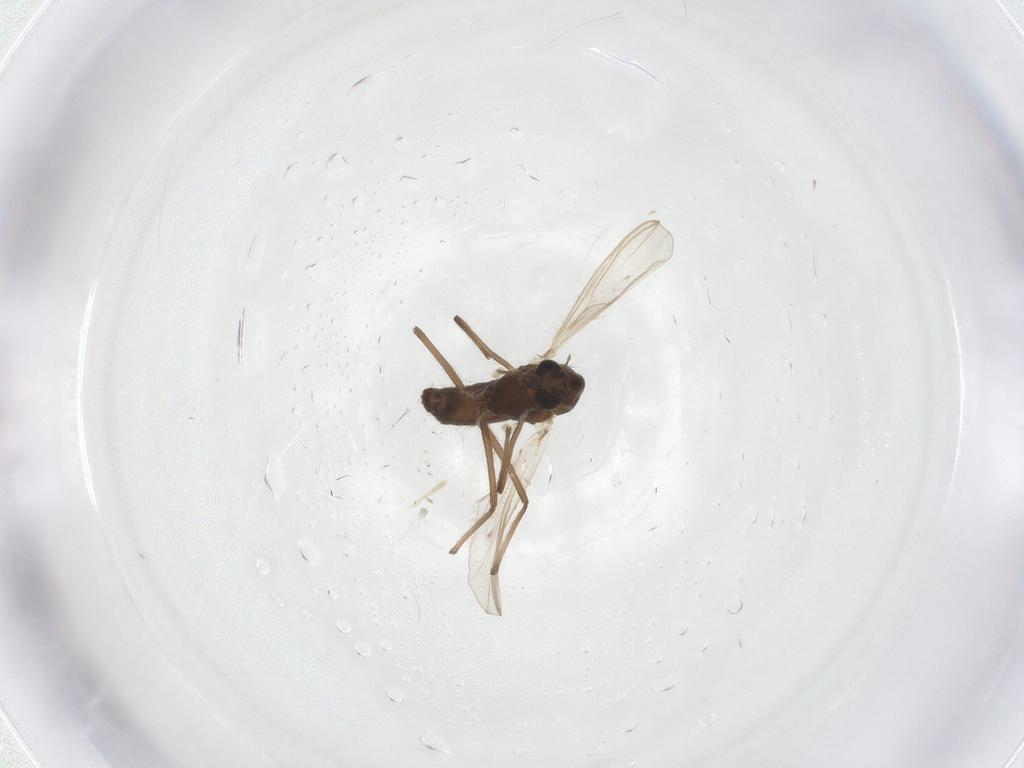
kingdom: Animalia
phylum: Arthropoda
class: Insecta
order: Diptera
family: Chironomidae
